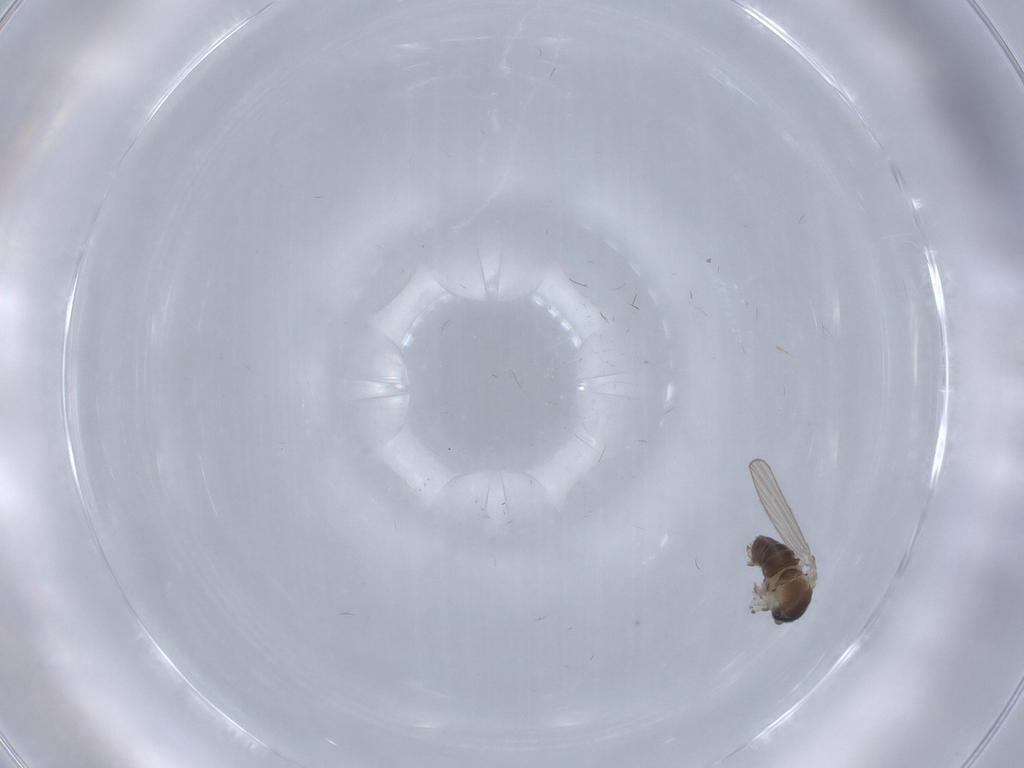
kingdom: Animalia
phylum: Arthropoda
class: Insecta
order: Diptera
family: Psychodidae
